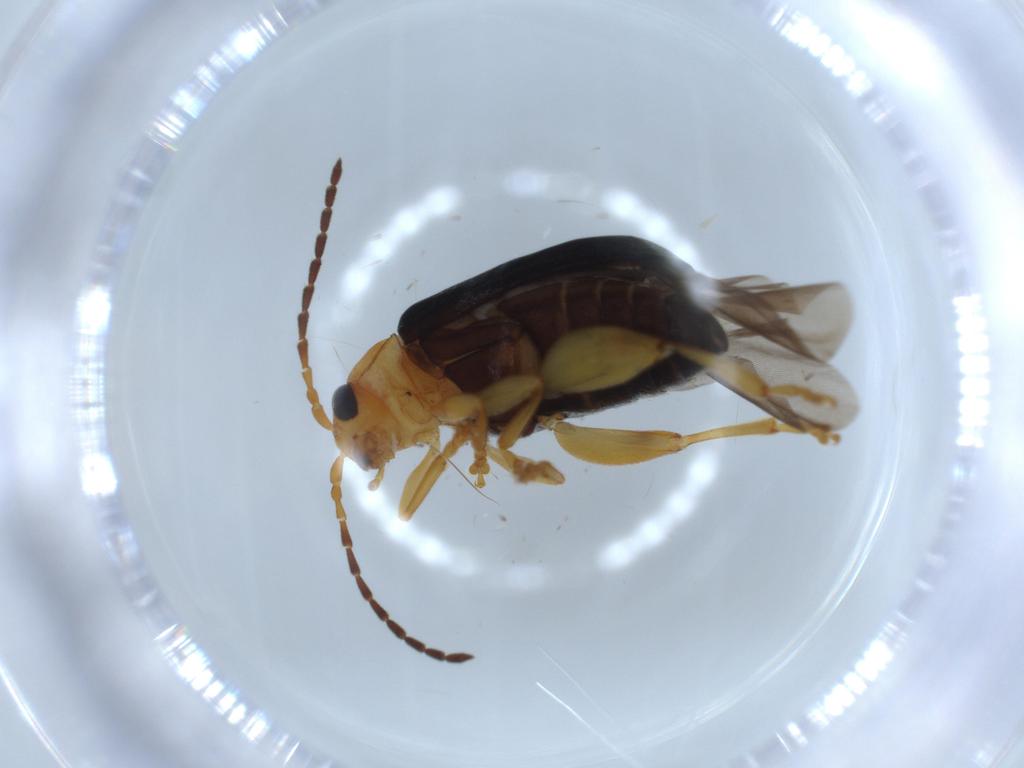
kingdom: Animalia
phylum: Arthropoda
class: Insecta
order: Coleoptera
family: Chrysomelidae
